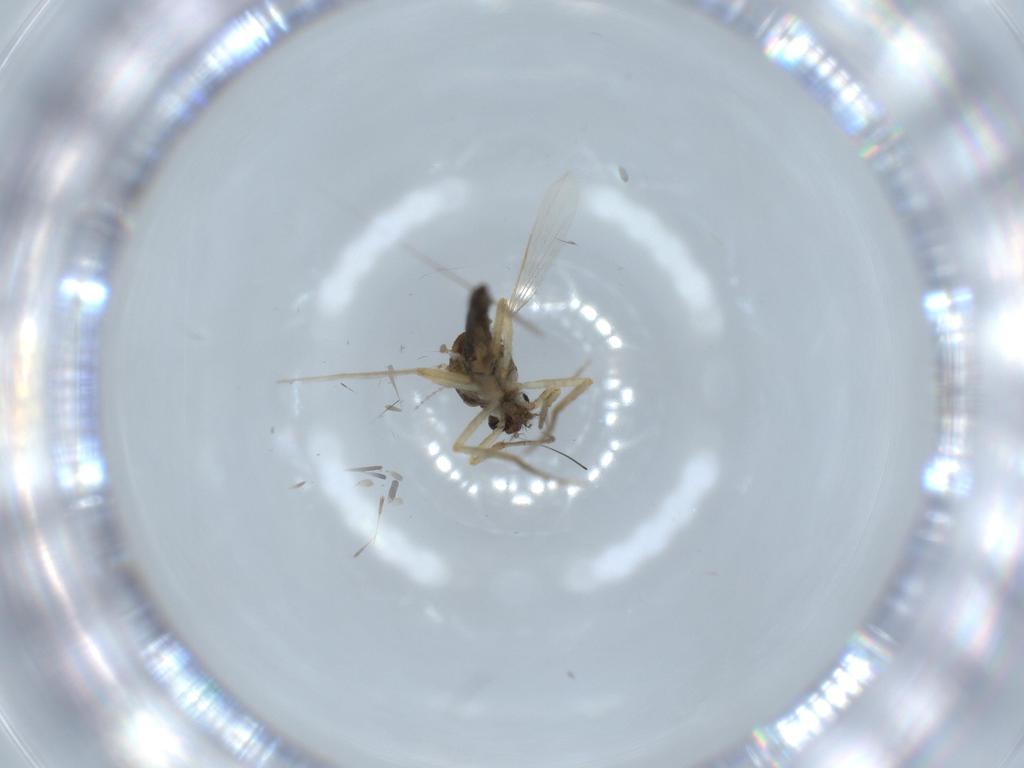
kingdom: Animalia
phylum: Arthropoda
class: Insecta
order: Diptera
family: Ceratopogonidae
